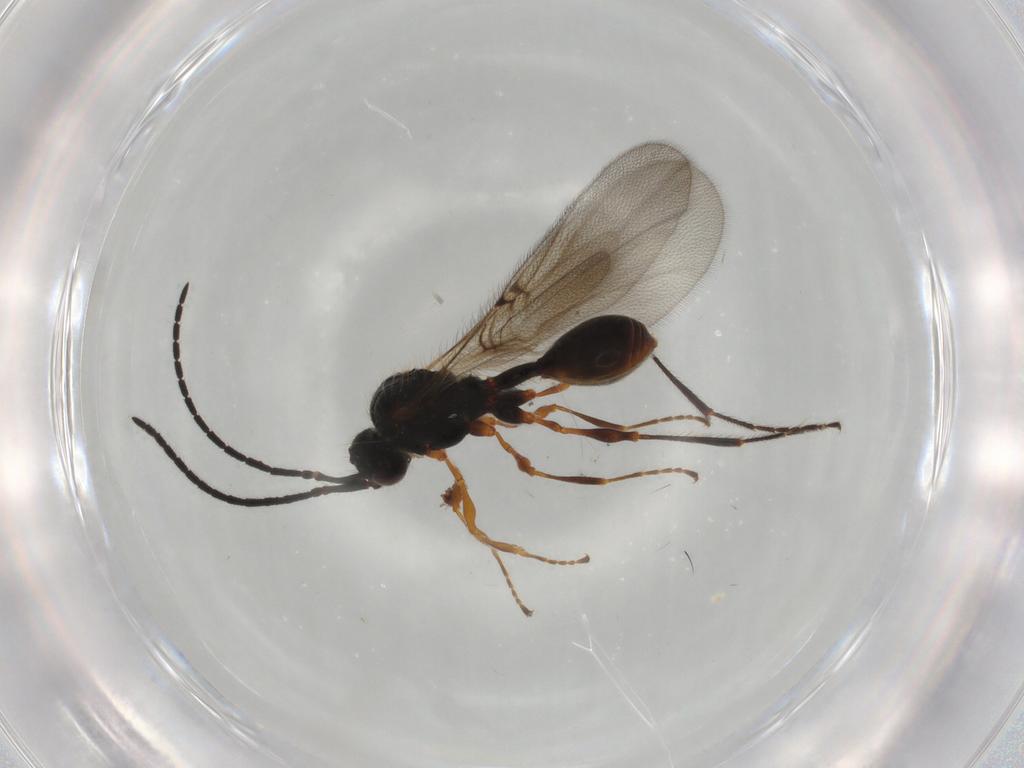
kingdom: Animalia
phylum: Arthropoda
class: Insecta
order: Hymenoptera
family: Diapriidae
